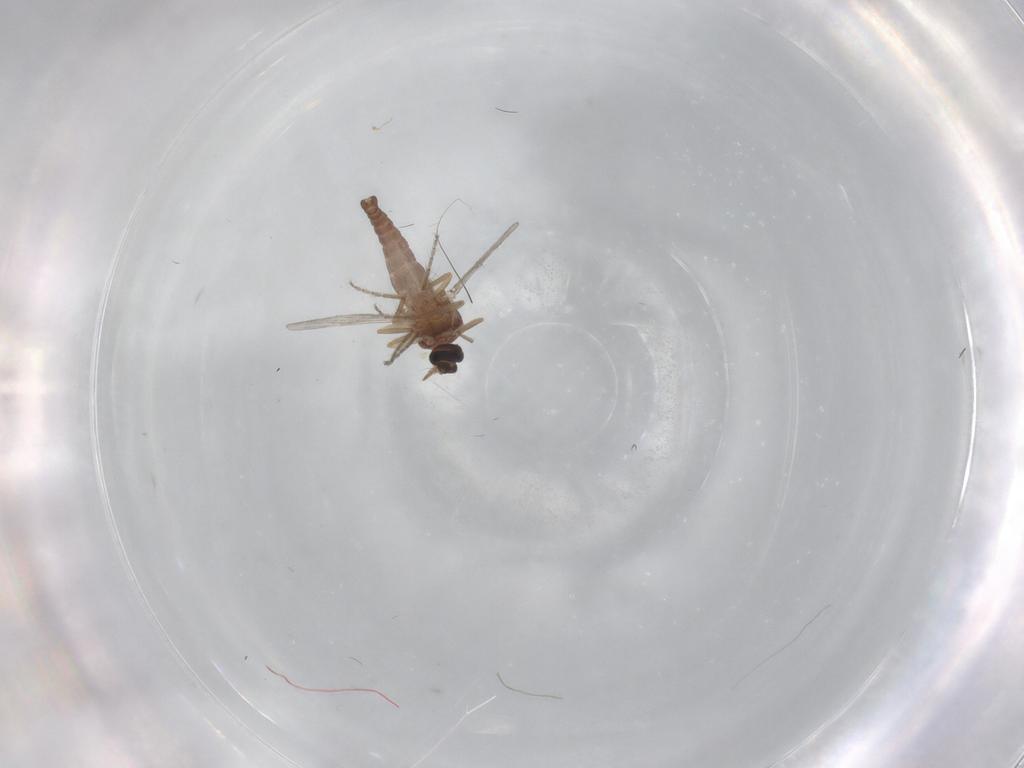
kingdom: Animalia
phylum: Arthropoda
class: Insecta
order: Diptera
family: Ceratopogonidae
